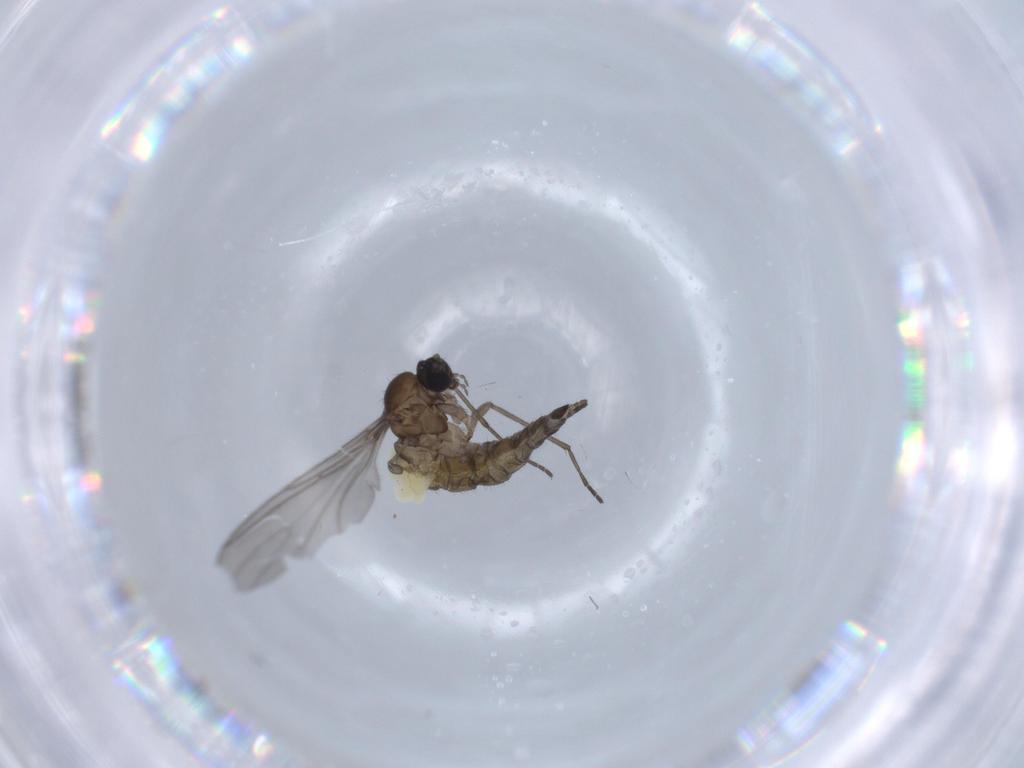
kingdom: Animalia
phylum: Arthropoda
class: Insecta
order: Diptera
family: Sciaridae
